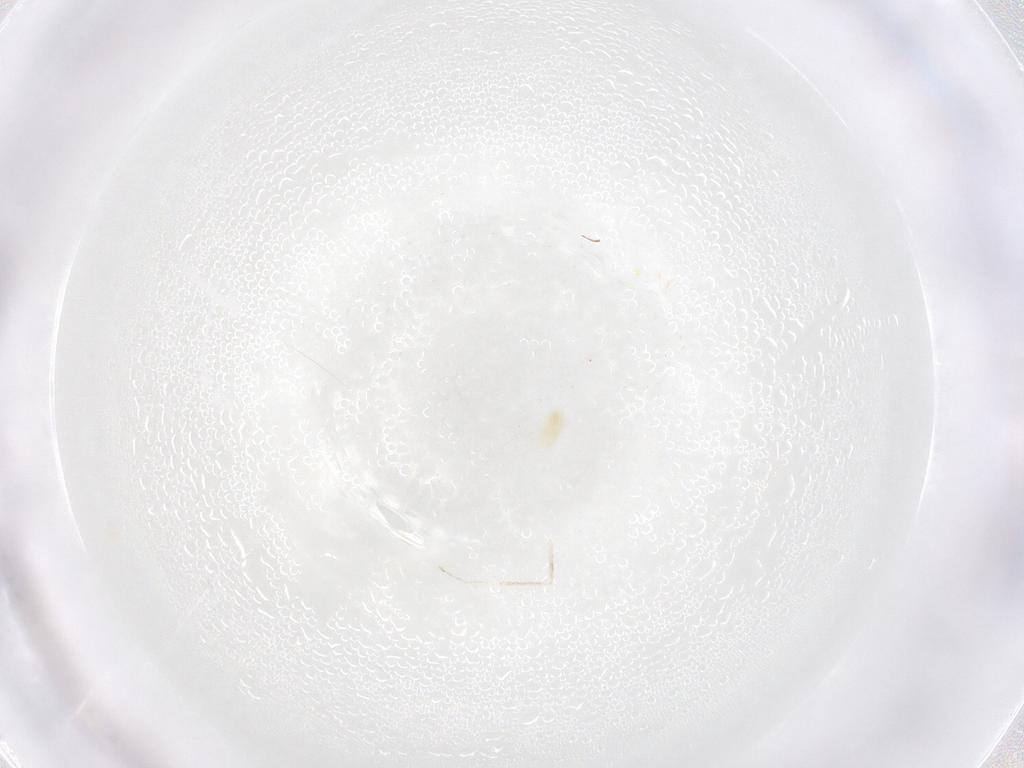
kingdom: Animalia
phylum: Arthropoda
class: Arachnida
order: Trombidiformes
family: Eupodidae
